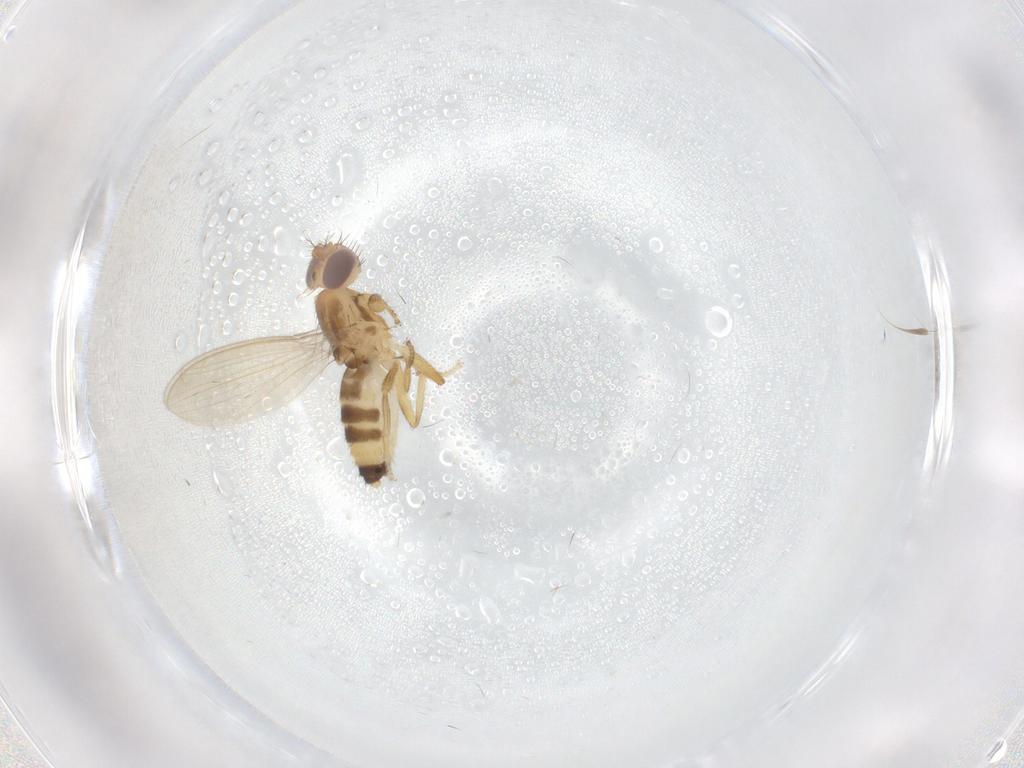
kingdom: Animalia
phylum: Arthropoda
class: Insecta
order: Diptera
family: Periscelididae
